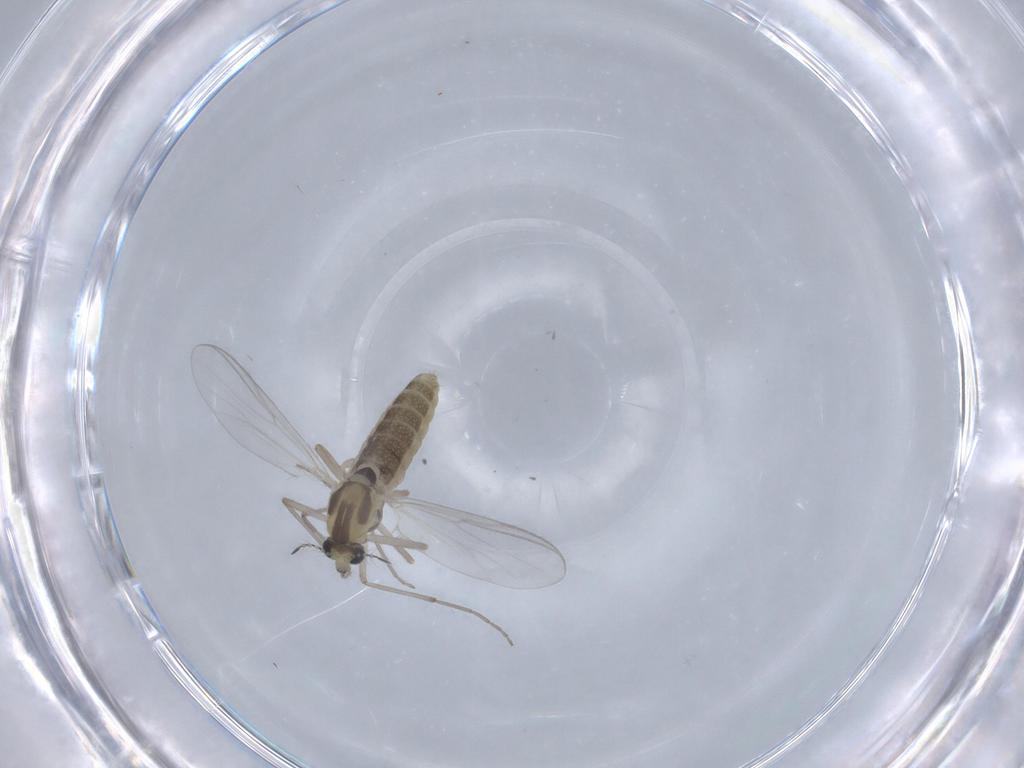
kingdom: Animalia
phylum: Arthropoda
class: Insecta
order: Diptera
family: Chironomidae
